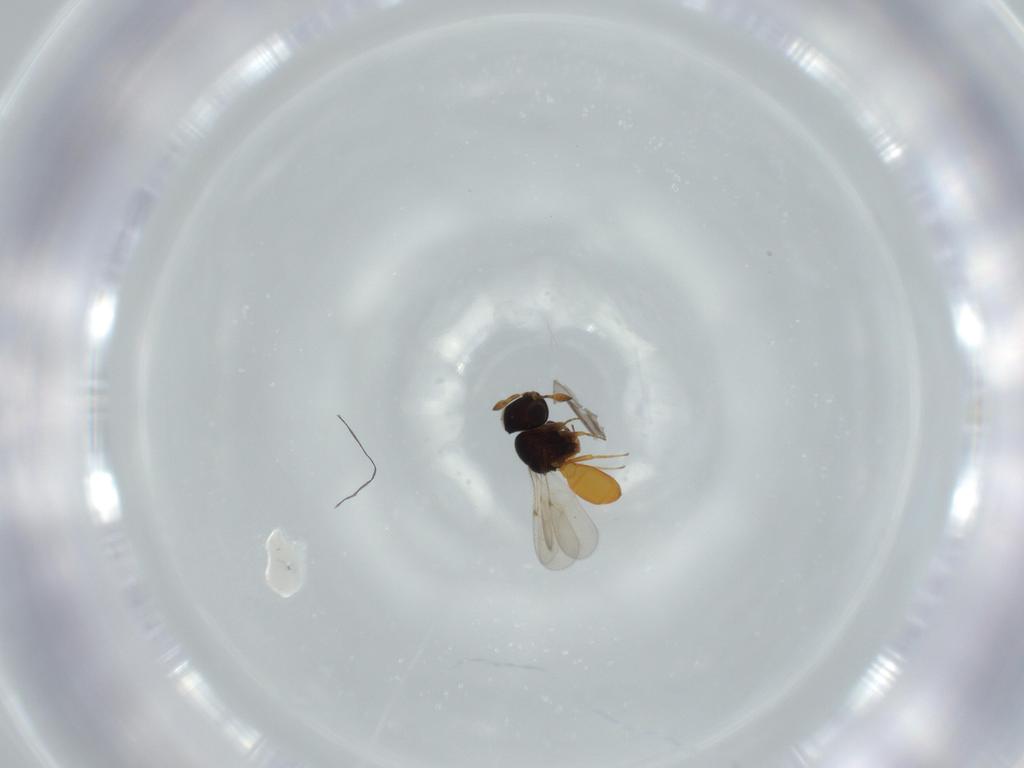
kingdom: Animalia
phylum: Arthropoda
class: Insecta
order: Hymenoptera
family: Scelionidae
